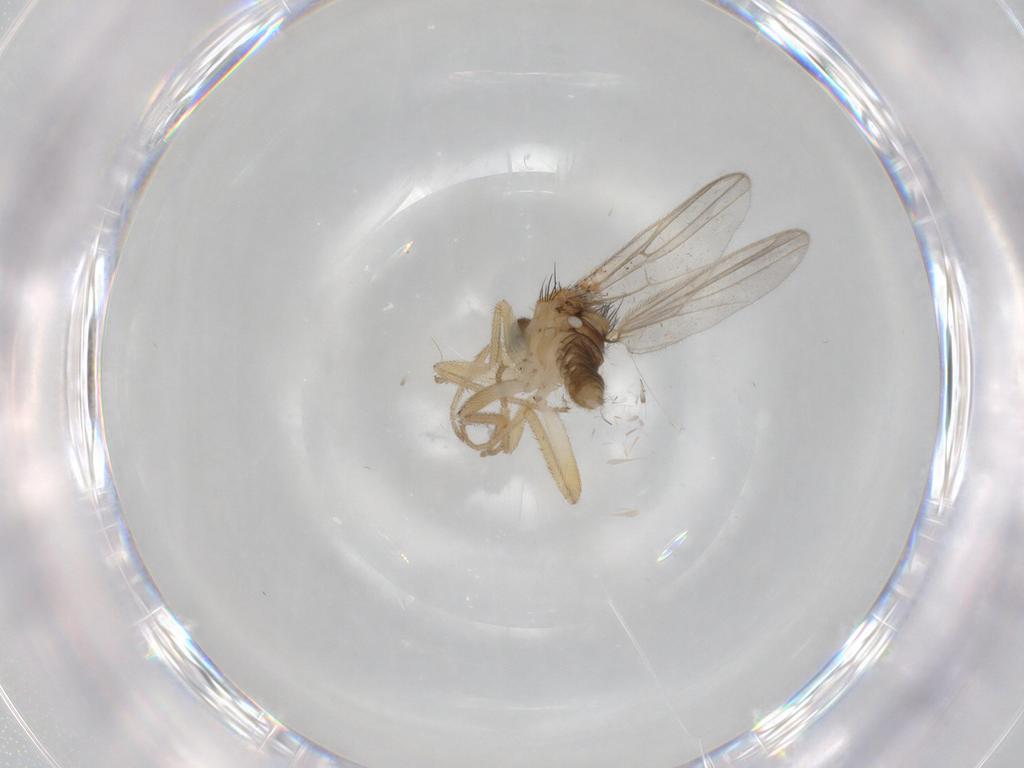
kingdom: Animalia
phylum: Arthropoda
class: Insecta
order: Diptera
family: Hybotidae
